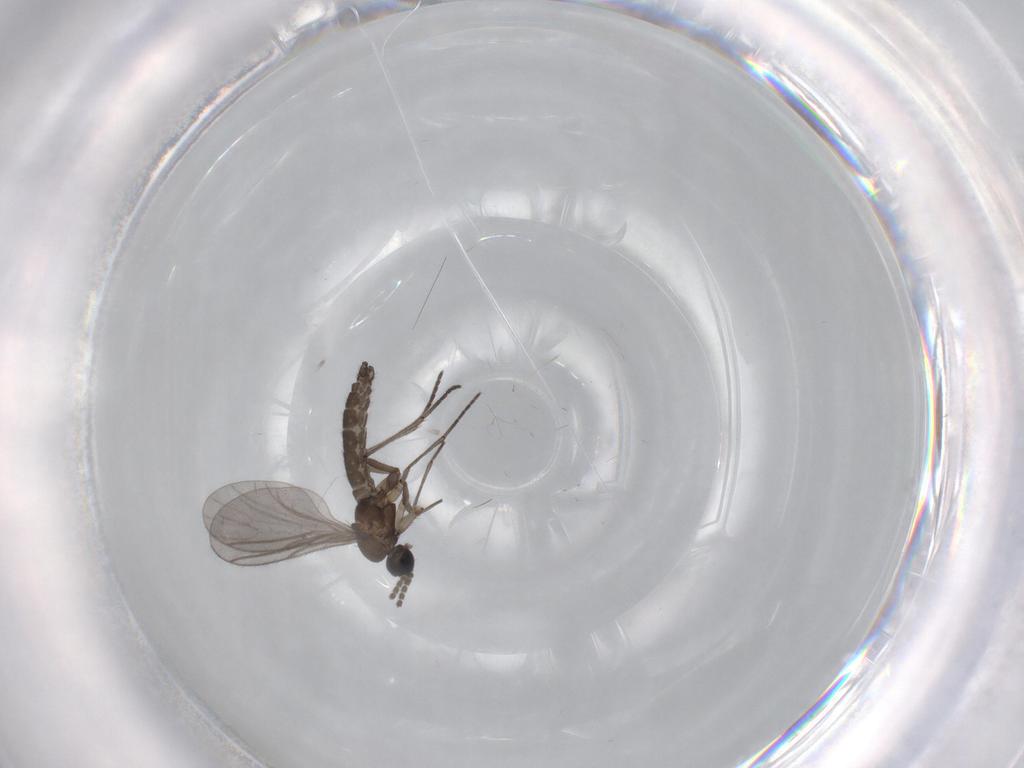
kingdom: Animalia
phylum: Arthropoda
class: Insecta
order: Diptera
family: Sciaridae
